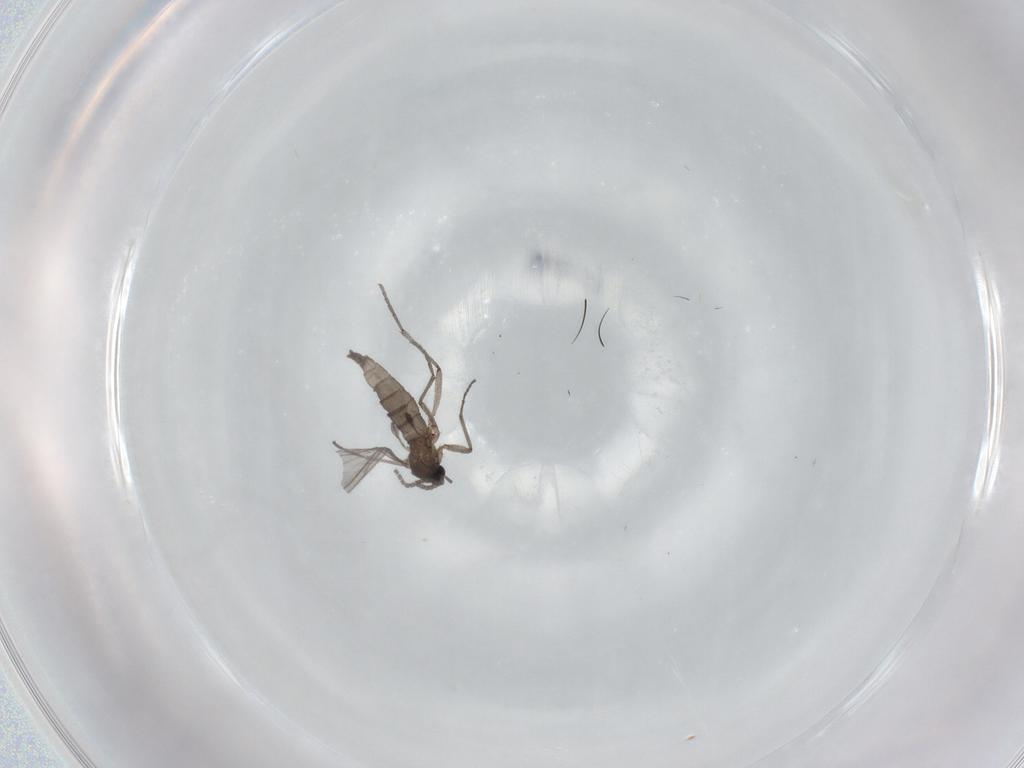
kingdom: Animalia
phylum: Arthropoda
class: Insecta
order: Diptera
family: Sciaridae
